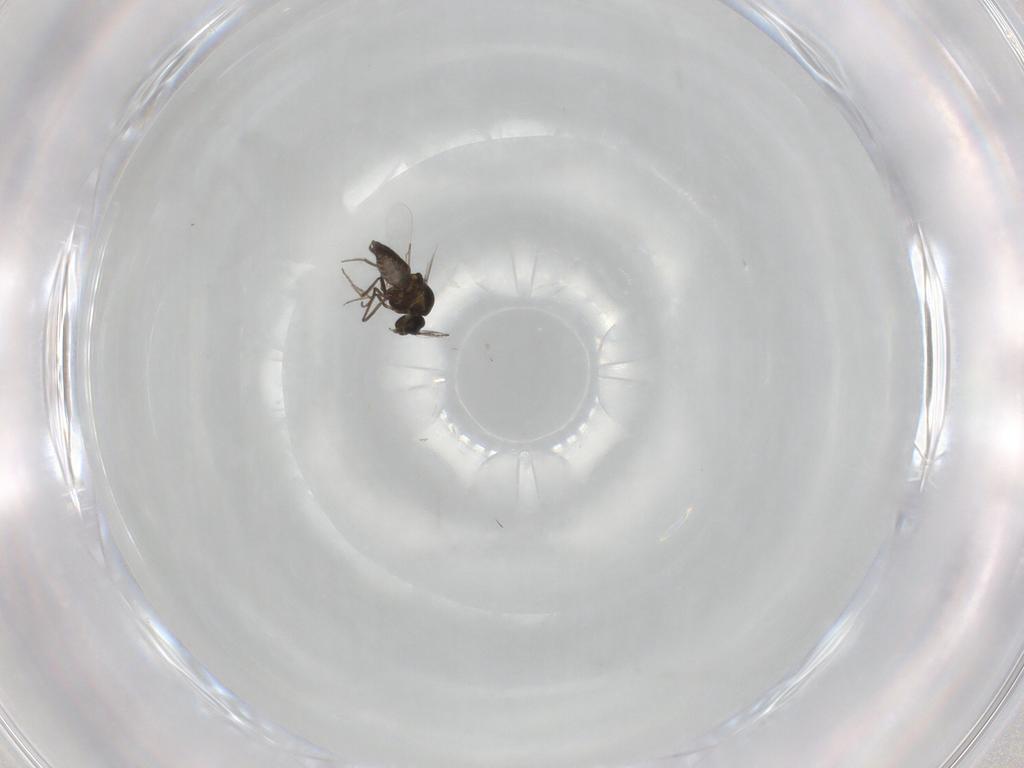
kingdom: Animalia
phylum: Arthropoda
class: Insecta
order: Diptera
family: Ceratopogonidae
